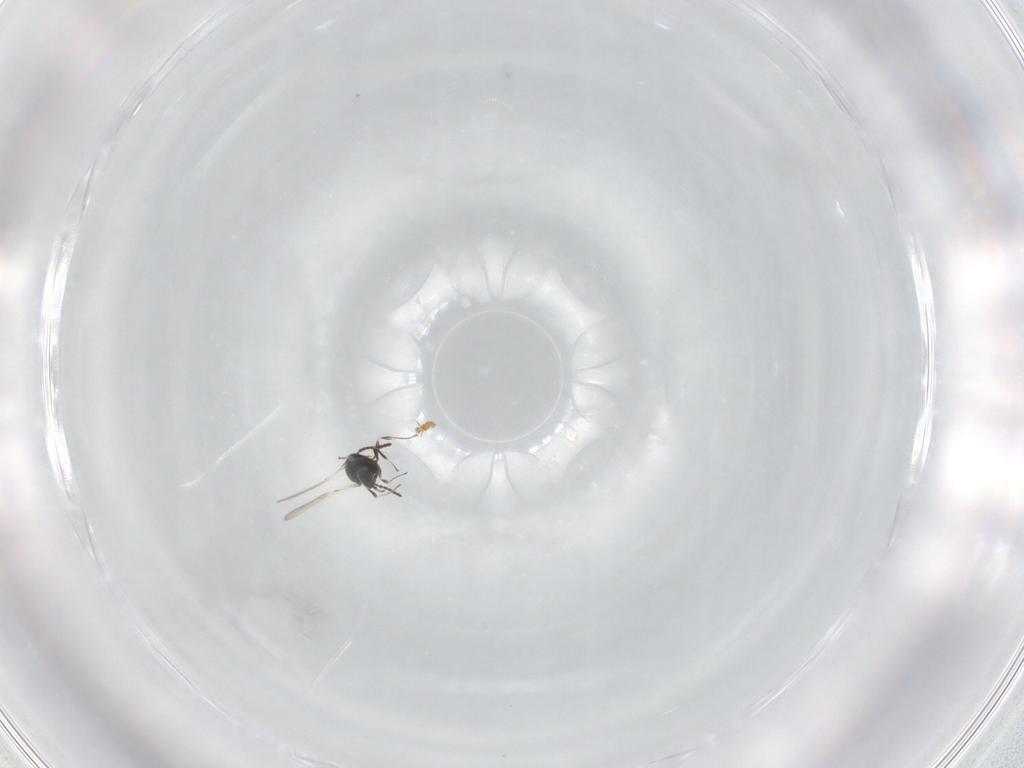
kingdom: Animalia
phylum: Arthropoda
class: Insecta
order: Hymenoptera
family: Scelionidae
